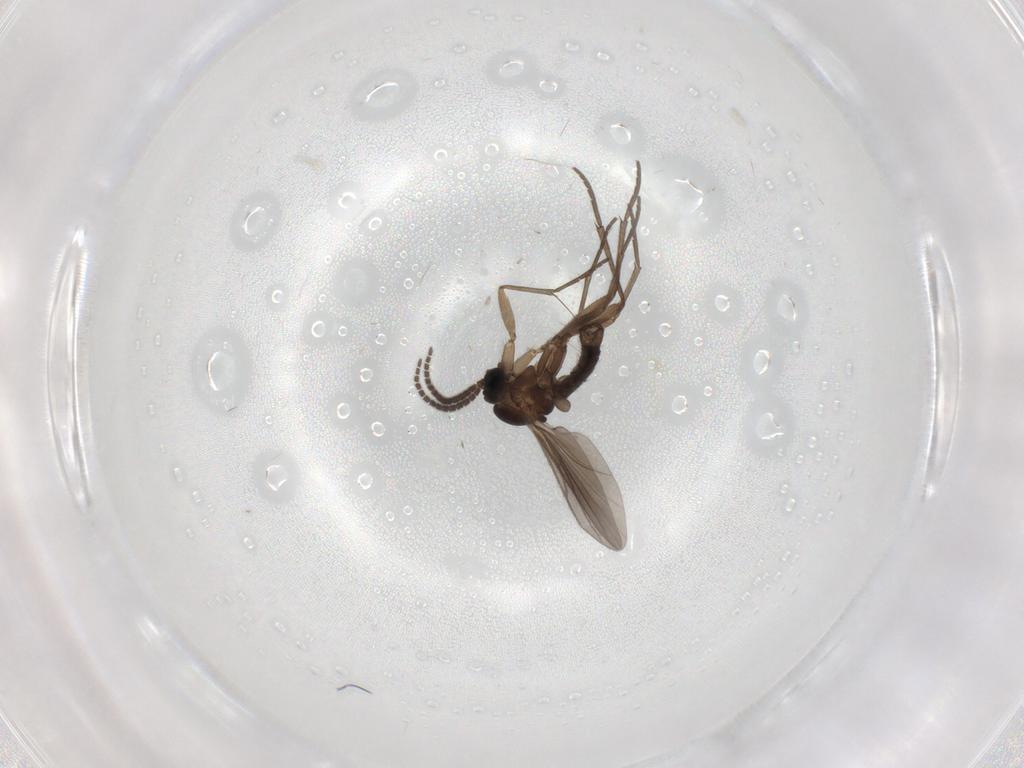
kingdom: Animalia
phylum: Arthropoda
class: Insecta
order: Diptera
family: Sciaridae
